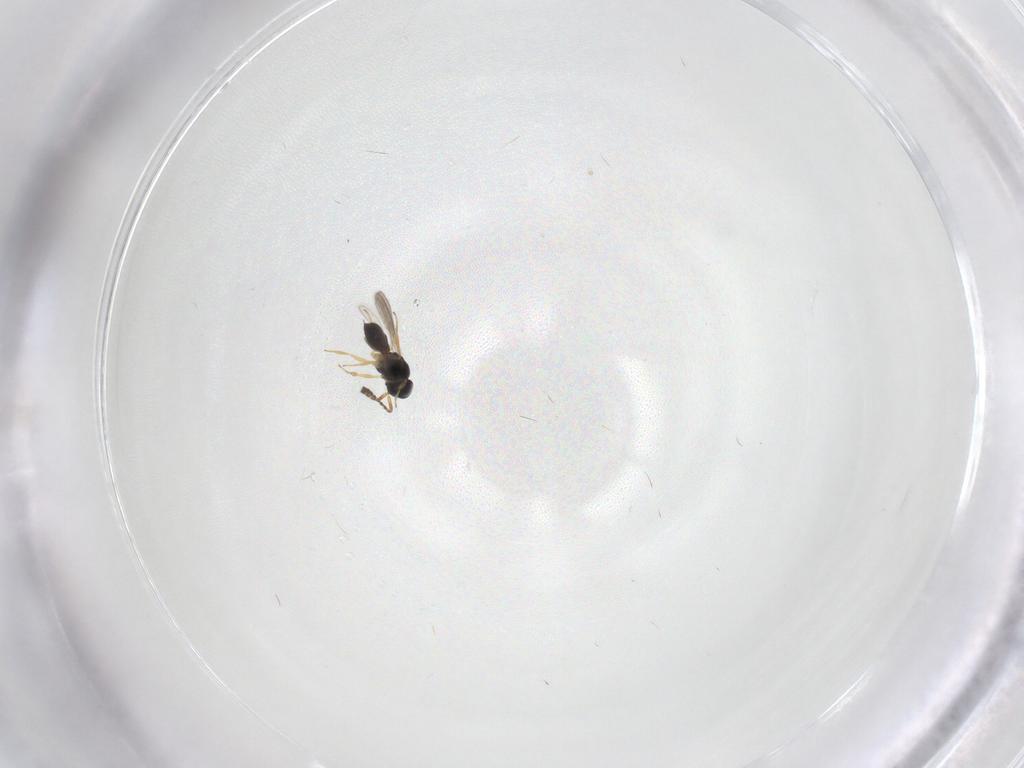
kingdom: Animalia
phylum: Arthropoda
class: Insecta
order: Hymenoptera
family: Scelionidae
